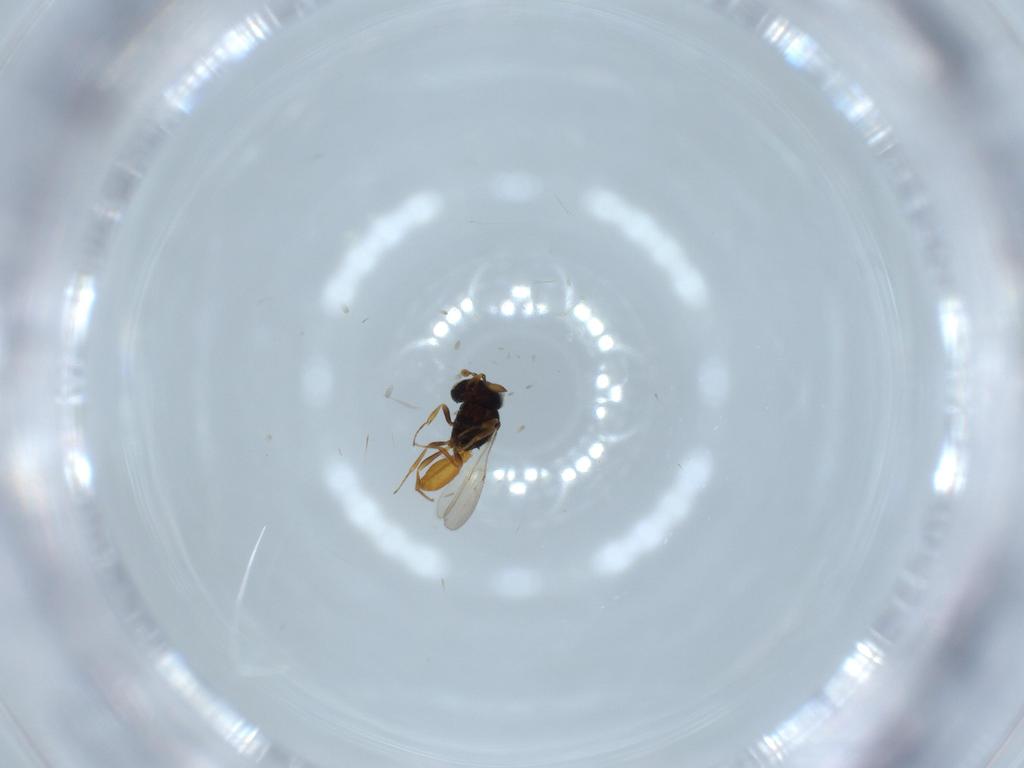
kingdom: Animalia
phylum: Arthropoda
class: Insecta
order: Hymenoptera
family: Scelionidae
